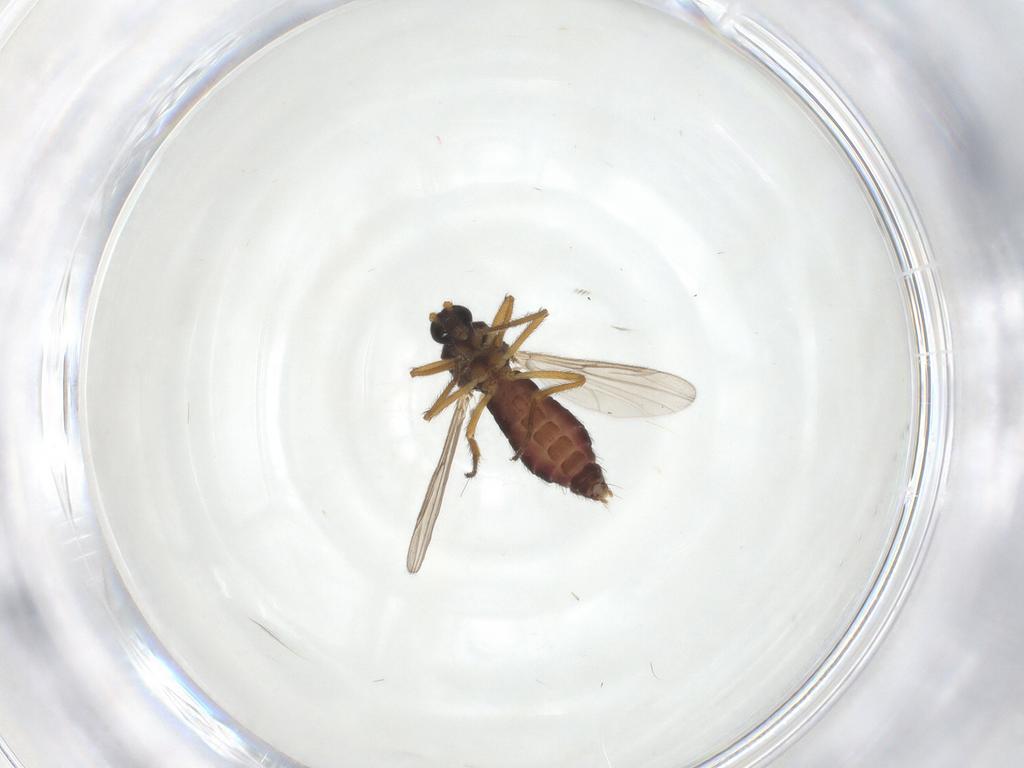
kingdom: Animalia
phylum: Arthropoda
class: Insecta
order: Diptera
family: Ceratopogonidae
